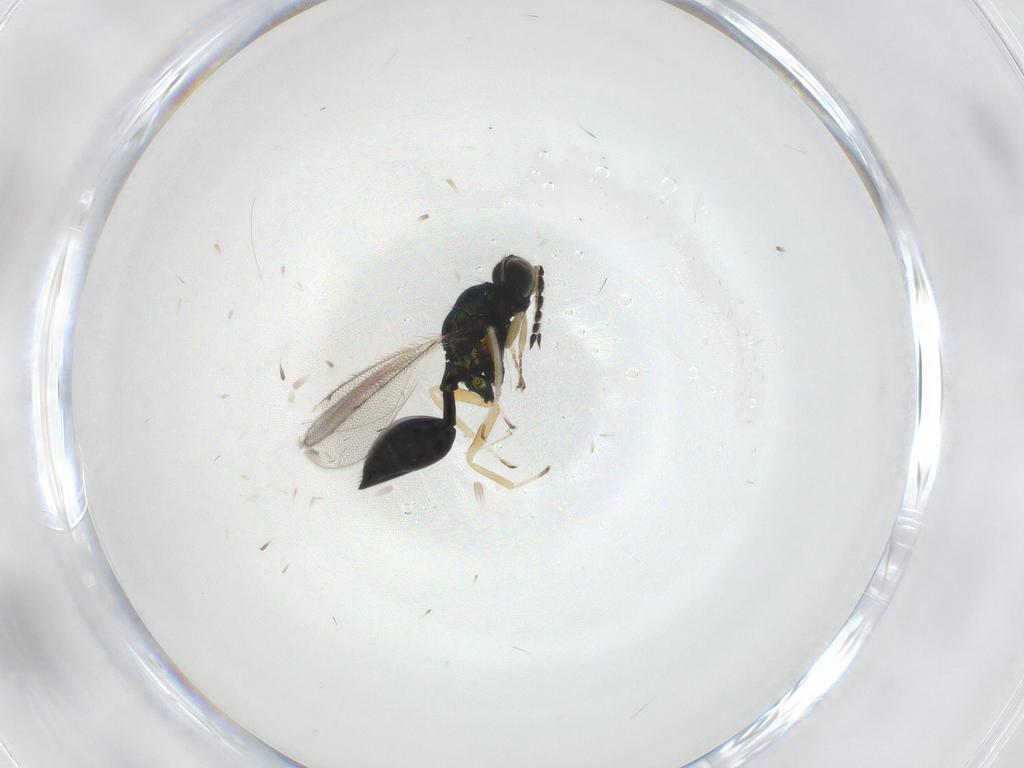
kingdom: Animalia
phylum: Arthropoda
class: Insecta
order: Hymenoptera
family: Eulophidae
